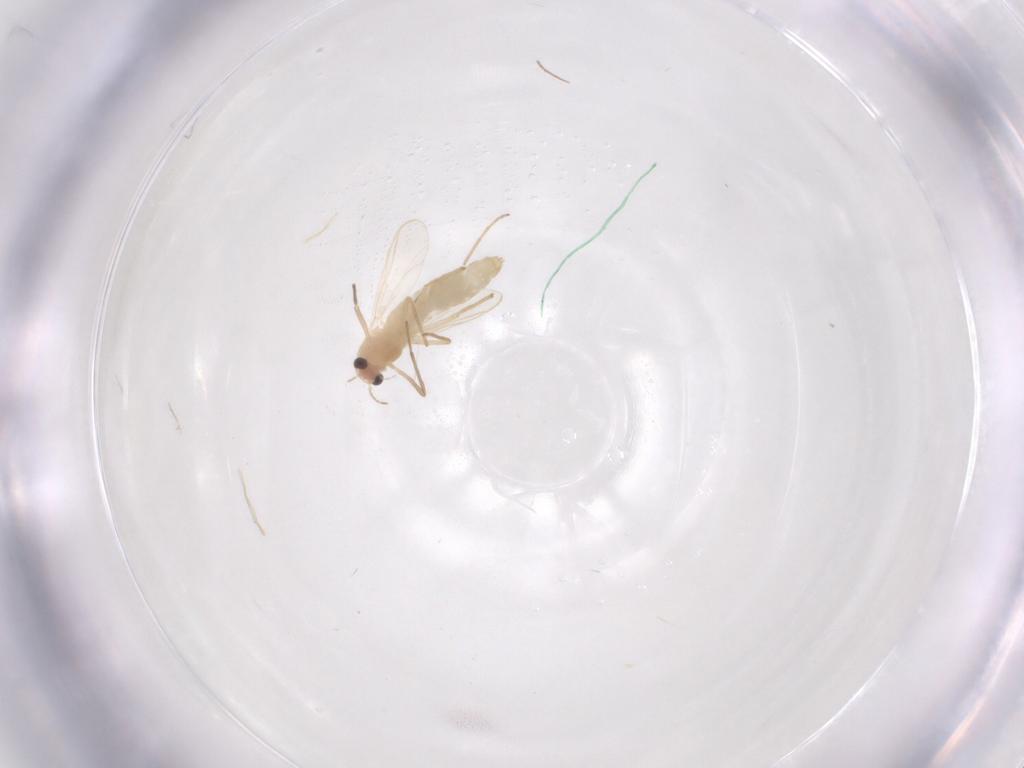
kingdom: Animalia
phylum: Arthropoda
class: Insecta
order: Diptera
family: Chironomidae
